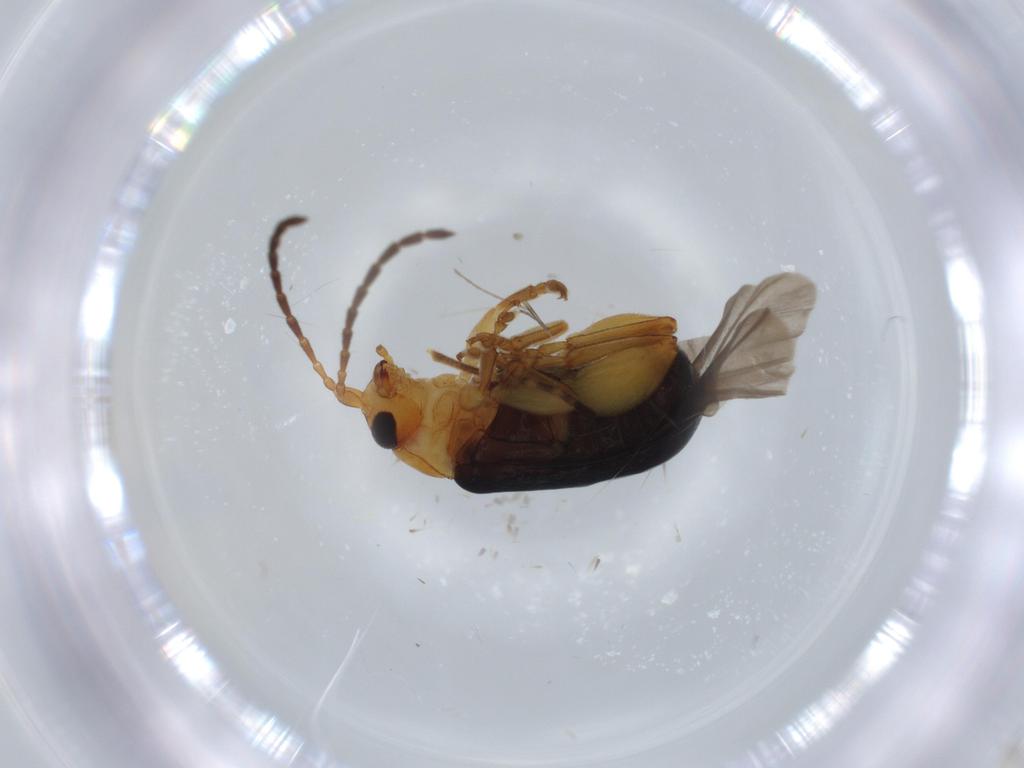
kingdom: Animalia
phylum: Arthropoda
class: Insecta
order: Coleoptera
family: Chrysomelidae
